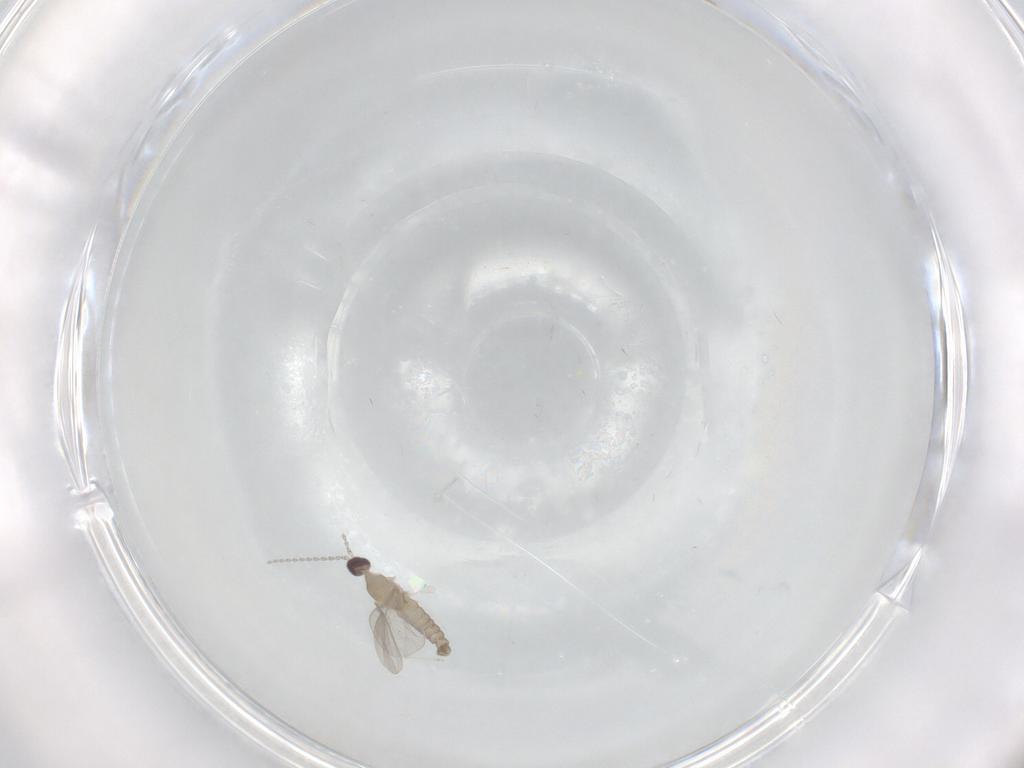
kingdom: Animalia
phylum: Arthropoda
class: Insecta
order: Diptera
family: Cecidomyiidae
